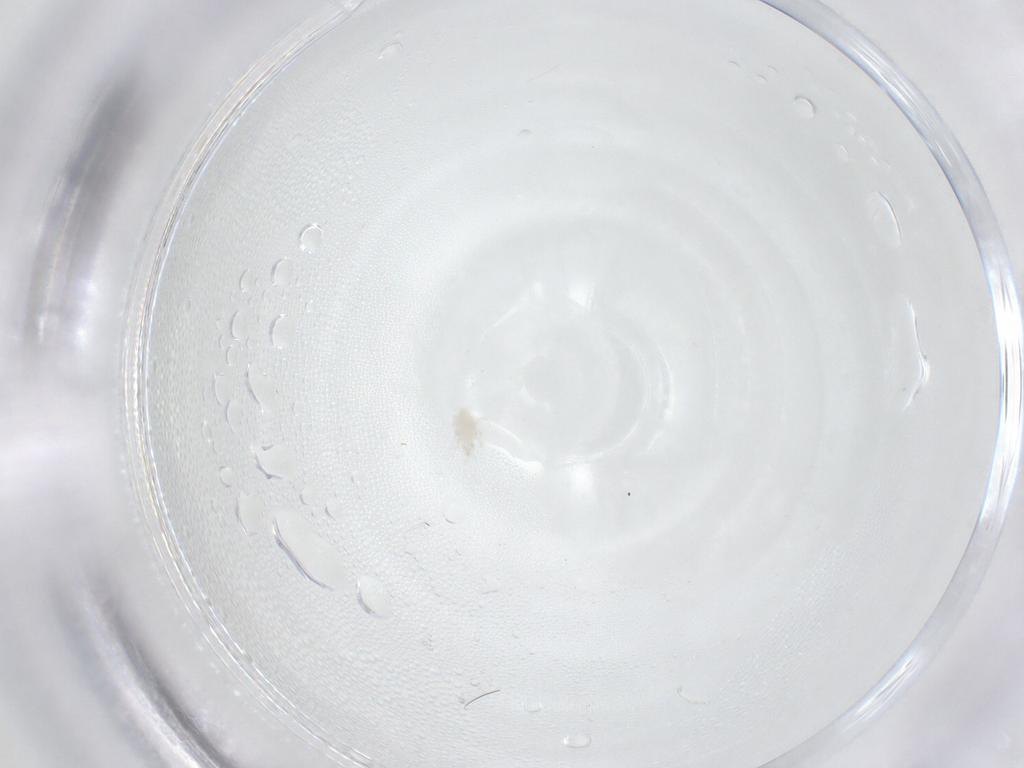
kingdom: Animalia
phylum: Arthropoda
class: Arachnida
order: Mesostigmata
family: Melicharidae
